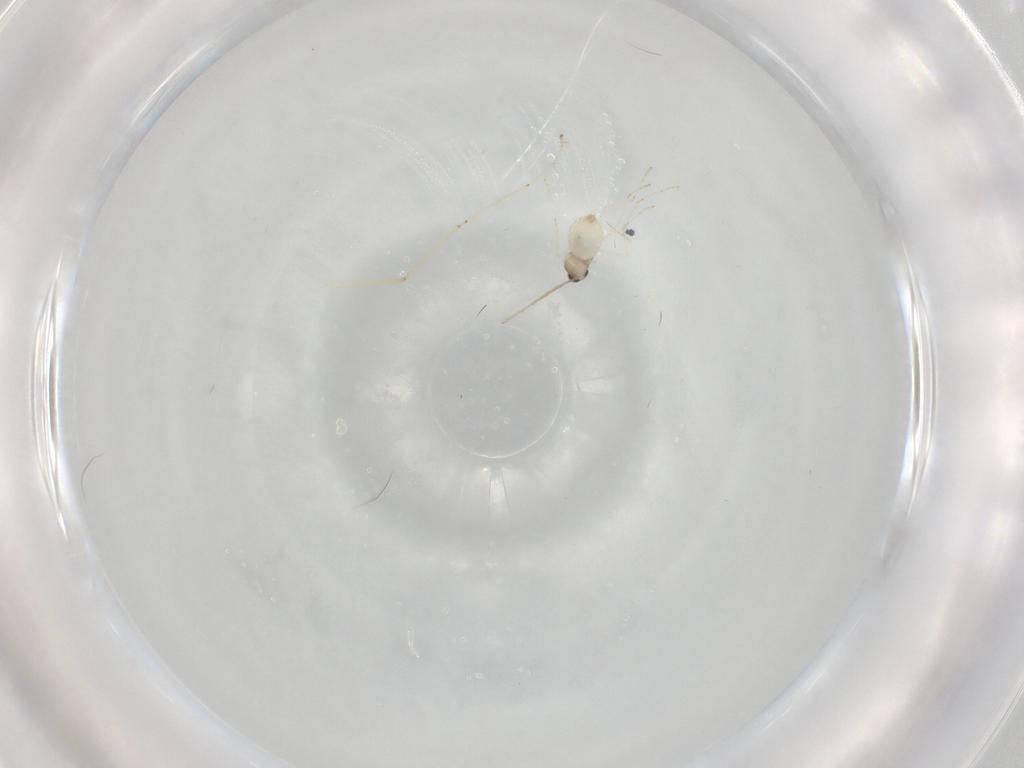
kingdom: Animalia
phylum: Arthropoda
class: Insecta
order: Diptera
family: Cecidomyiidae
